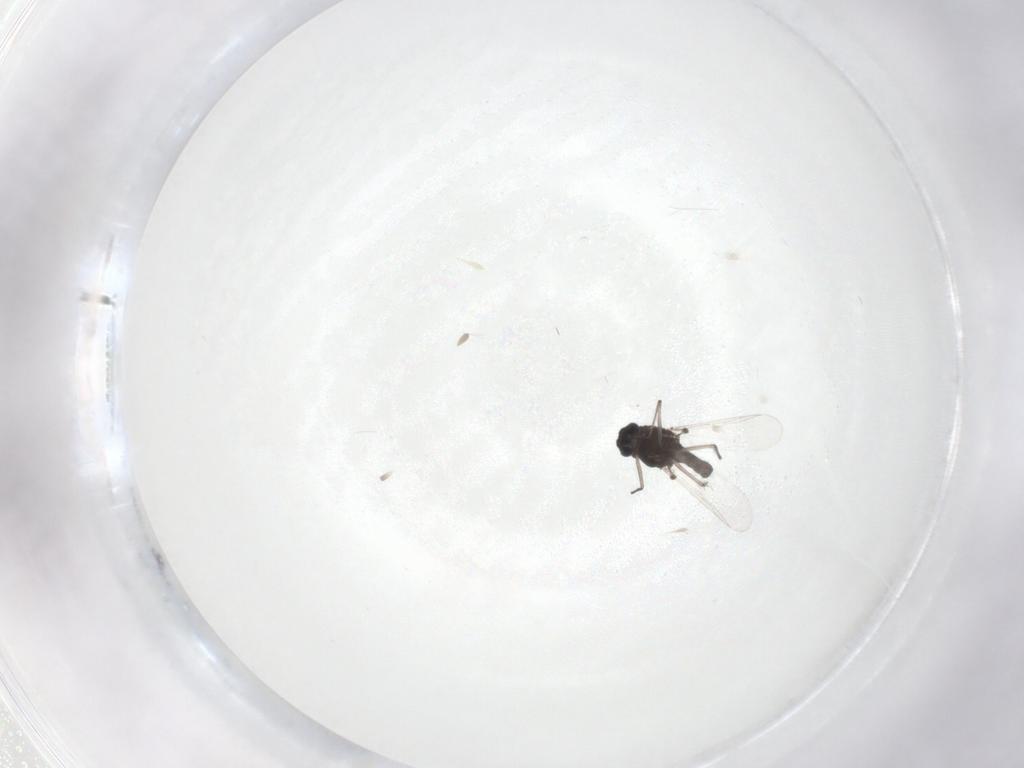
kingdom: Animalia
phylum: Arthropoda
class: Insecta
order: Diptera
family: Chironomidae
